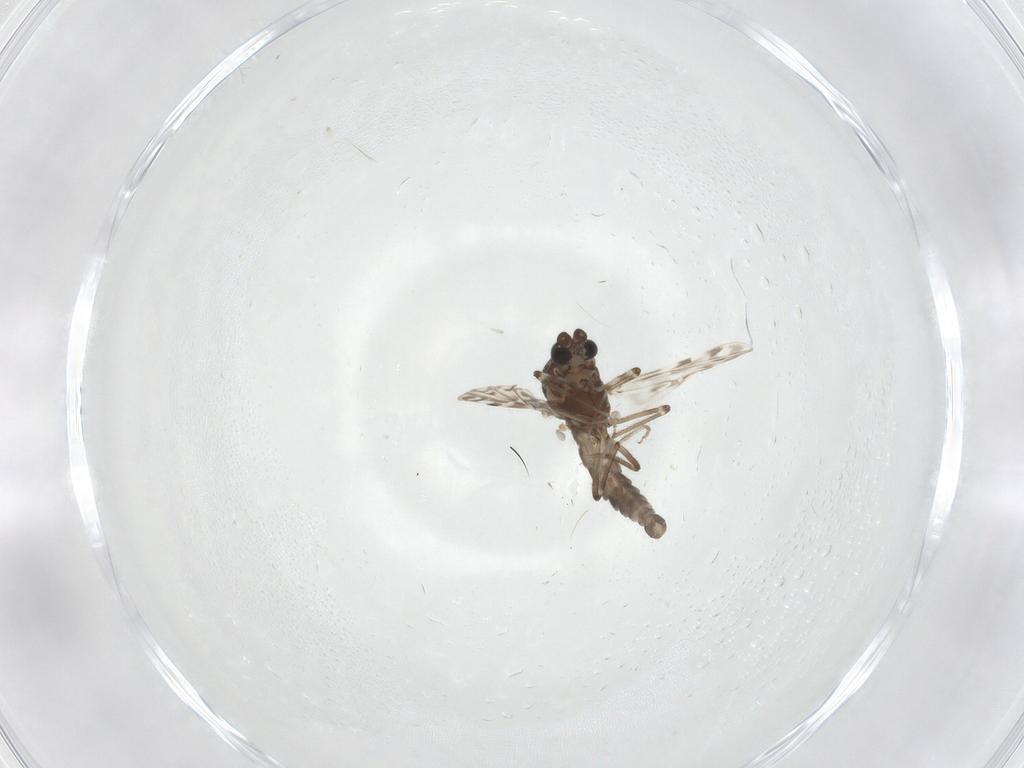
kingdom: Animalia
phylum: Arthropoda
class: Insecta
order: Diptera
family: Ceratopogonidae
